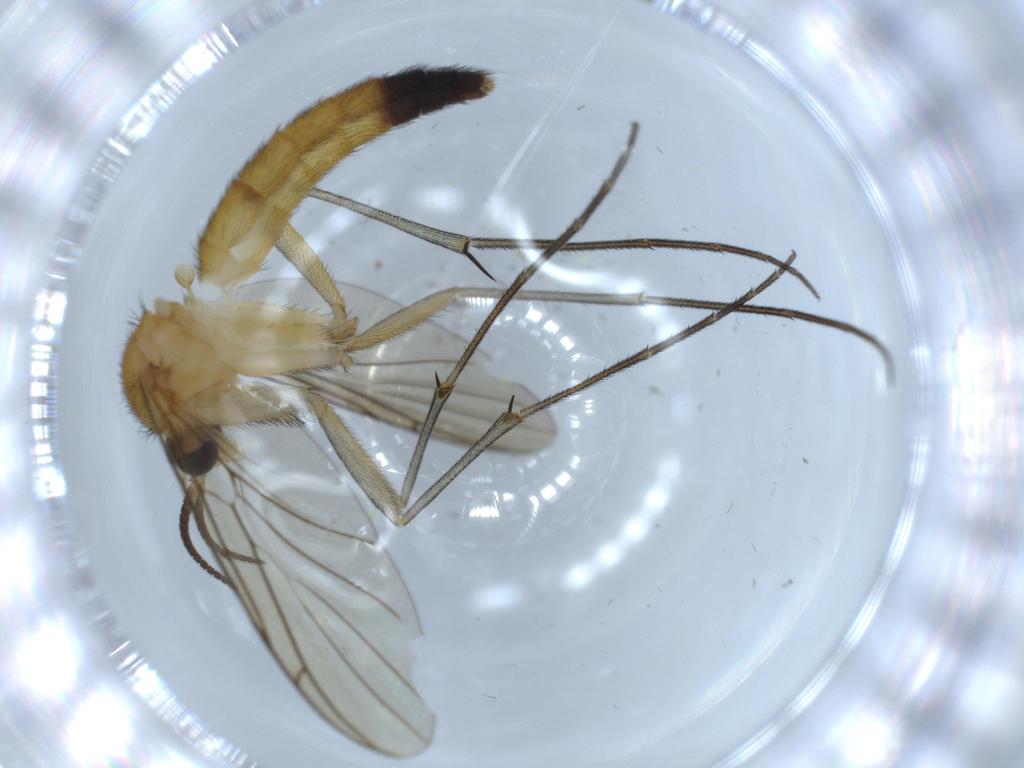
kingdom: Animalia
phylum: Arthropoda
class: Insecta
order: Diptera
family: Sciaridae
